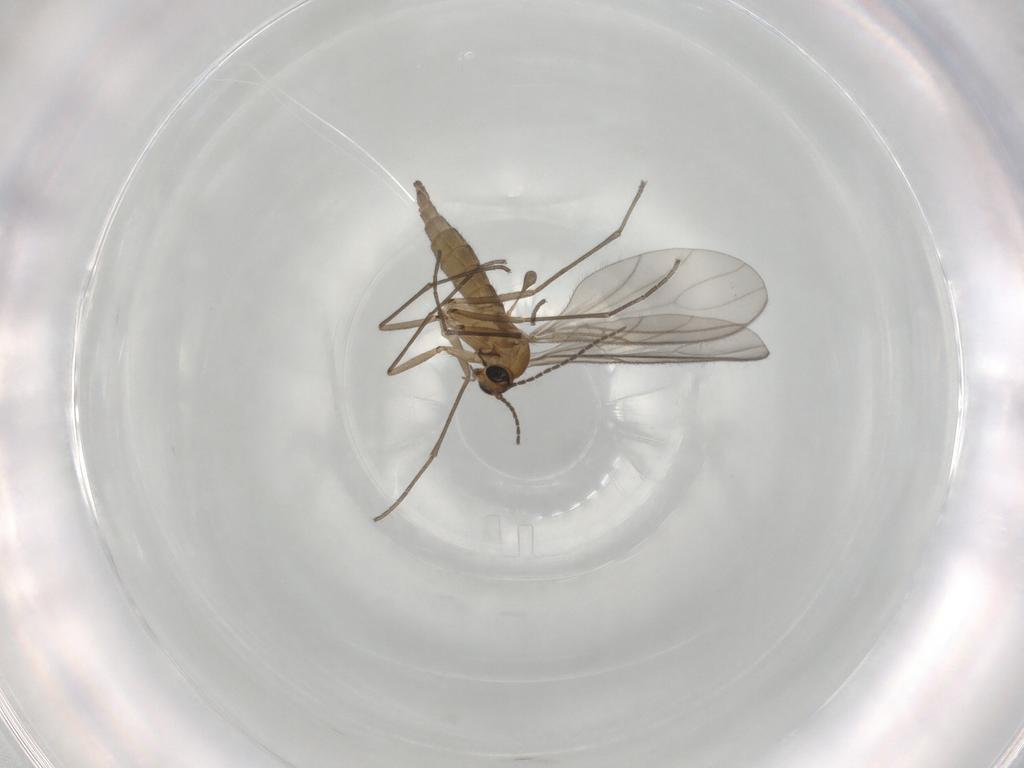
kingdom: Animalia
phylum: Arthropoda
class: Insecta
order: Diptera
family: Sciaridae
